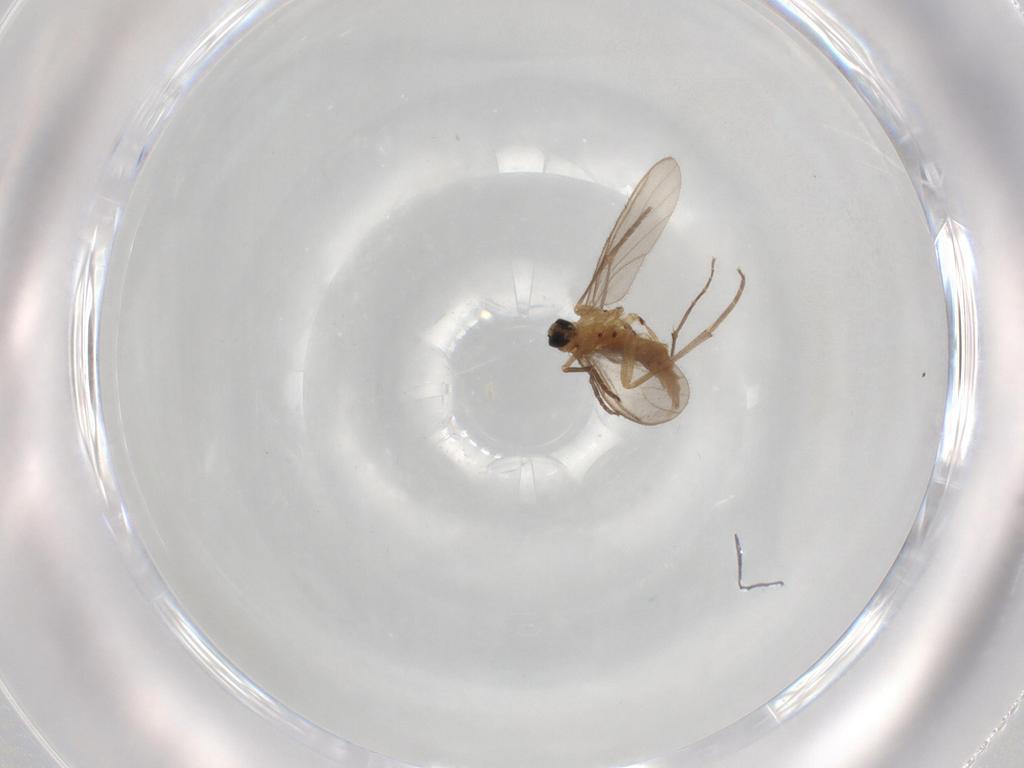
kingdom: Animalia
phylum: Arthropoda
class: Insecta
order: Diptera
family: Sciaridae
